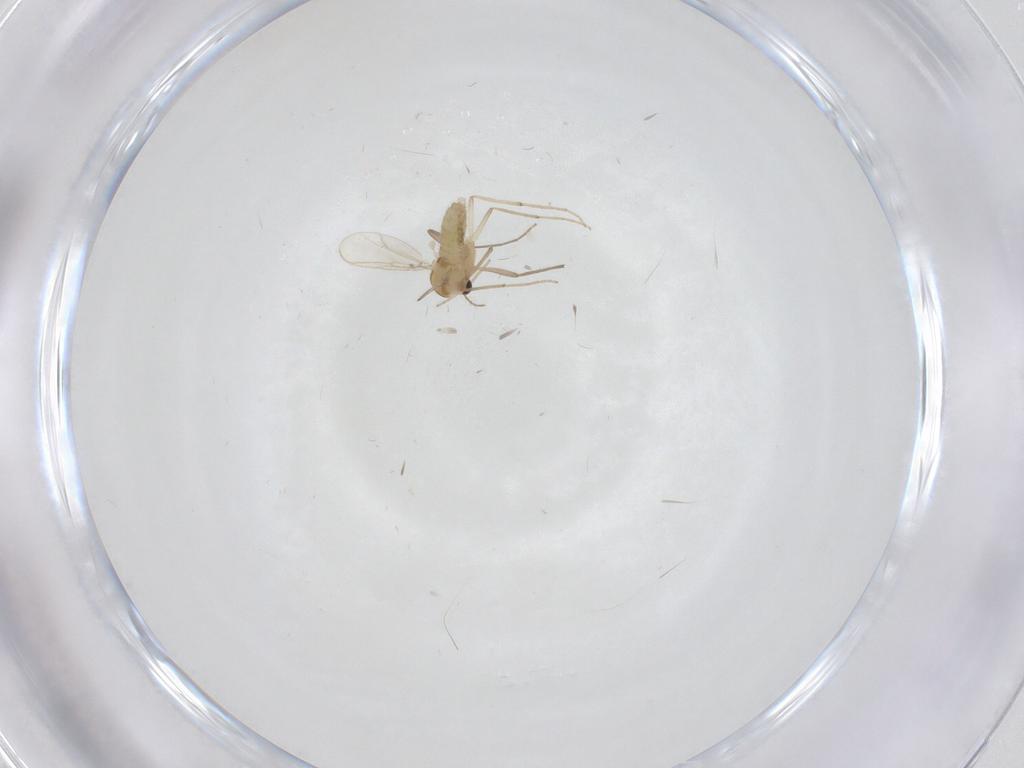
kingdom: Animalia
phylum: Arthropoda
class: Insecta
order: Diptera
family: Chironomidae
